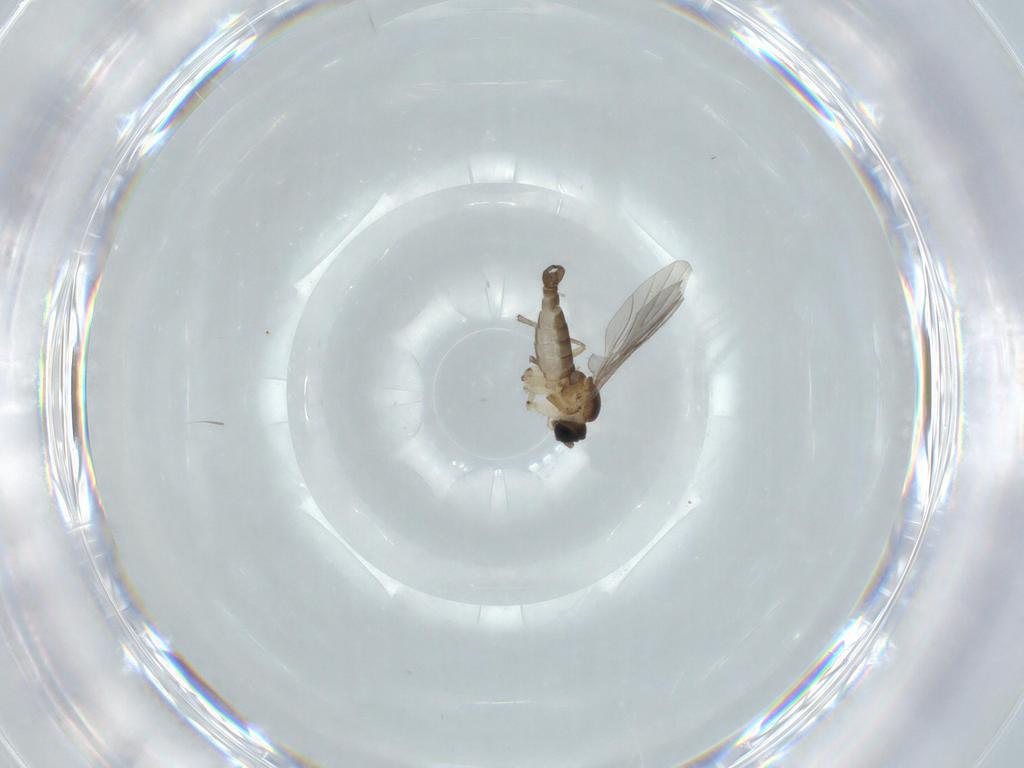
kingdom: Animalia
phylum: Arthropoda
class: Insecta
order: Diptera
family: Sciaridae
